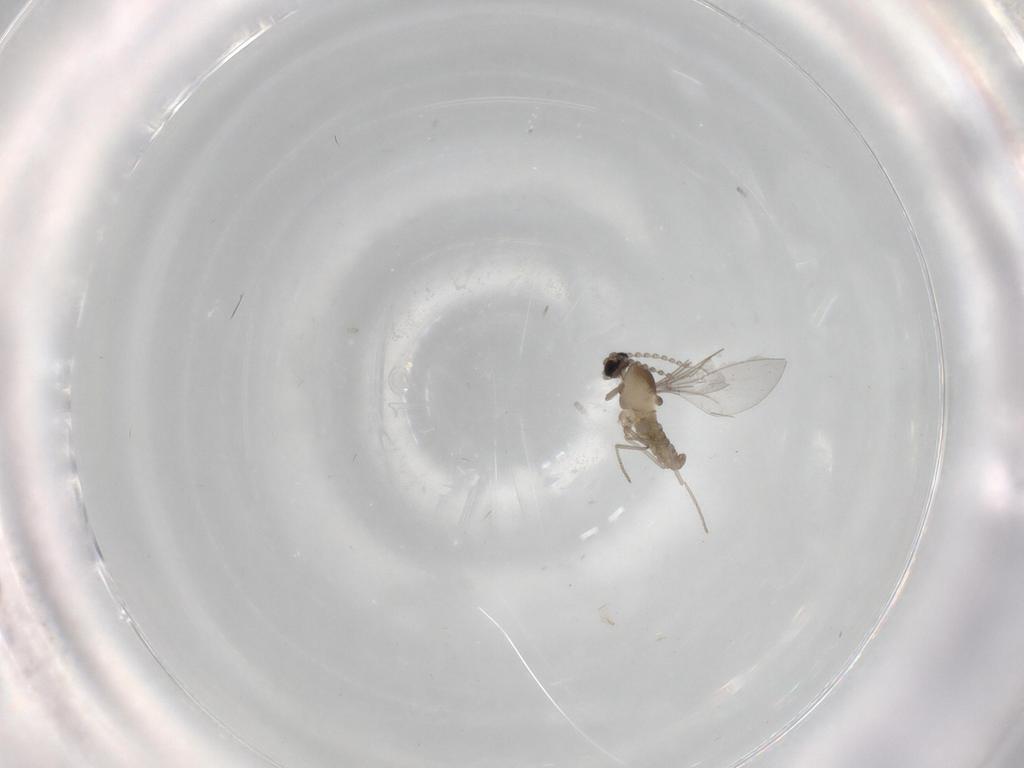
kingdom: Animalia
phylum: Arthropoda
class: Insecta
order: Diptera
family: Cecidomyiidae
